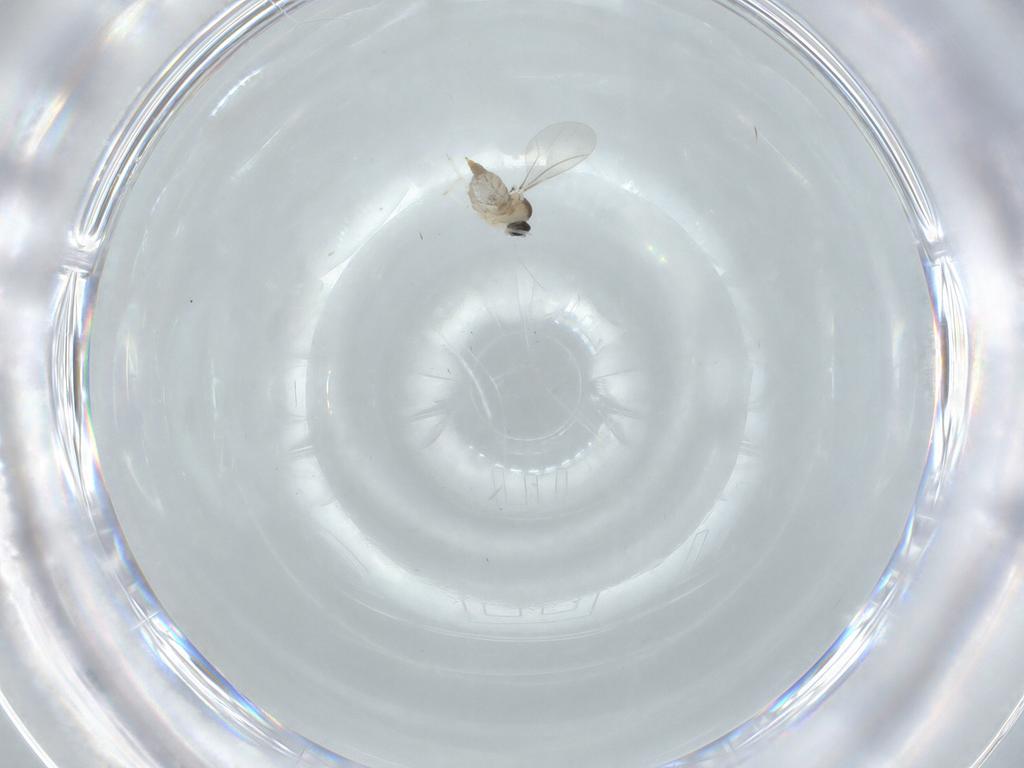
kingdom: Animalia
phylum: Arthropoda
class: Insecta
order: Diptera
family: Cecidomyiidae
